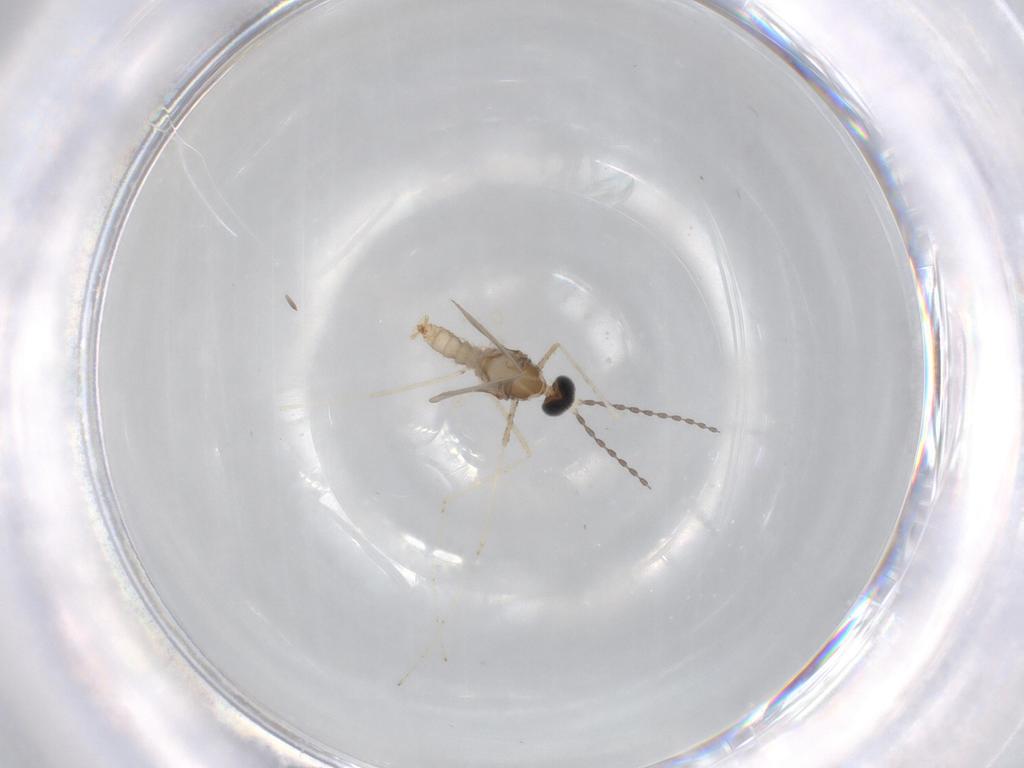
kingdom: Animalia
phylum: Arthropoda
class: Insecta
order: Diptera
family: Cecidomyiidae
